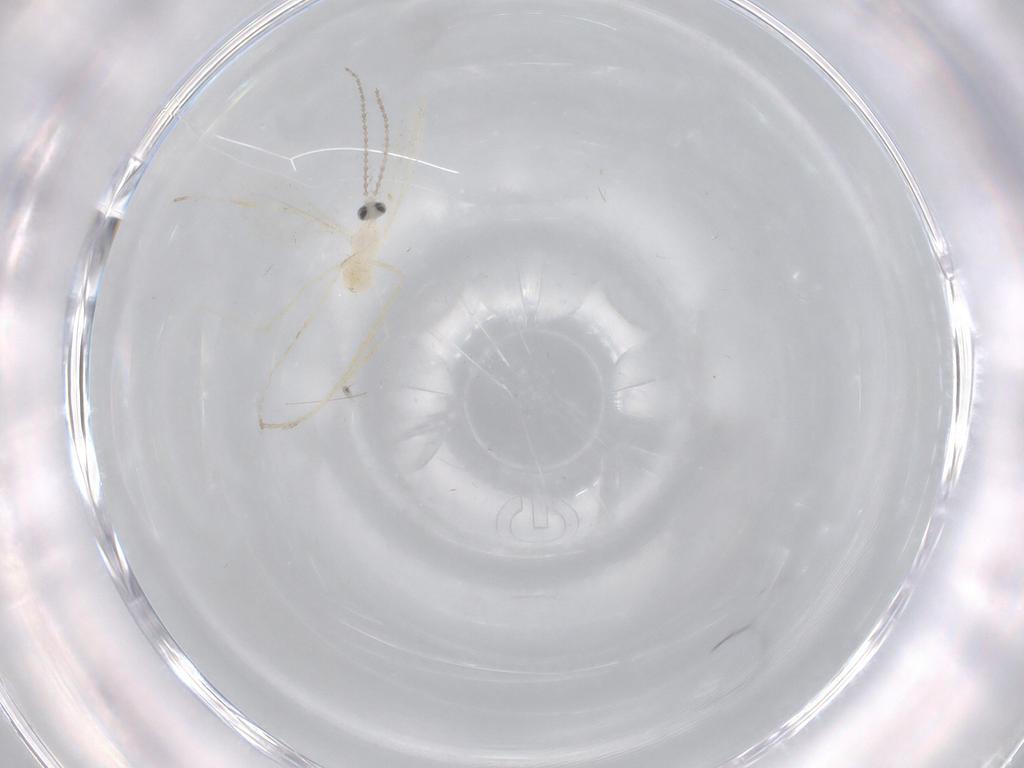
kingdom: Animalia
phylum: Arthropoda
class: Insecta
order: Diptera
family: Cecidomyiidae
